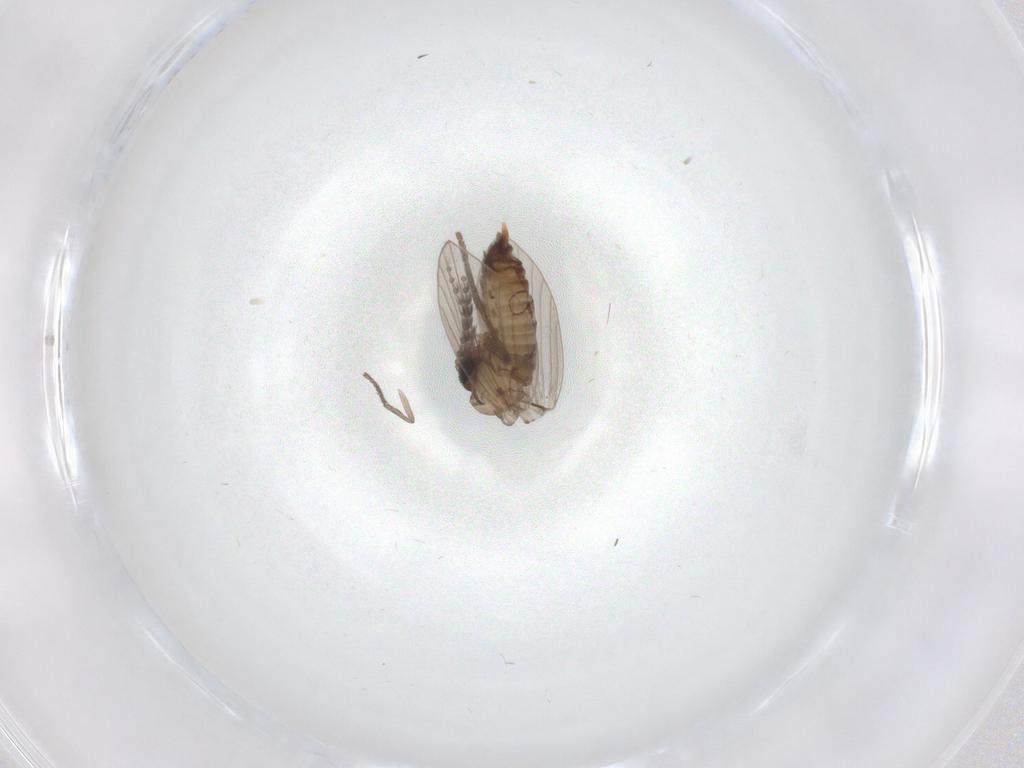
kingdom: Animalia
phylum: Arthropoda
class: Insecta
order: Diptera
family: Psychodidae
